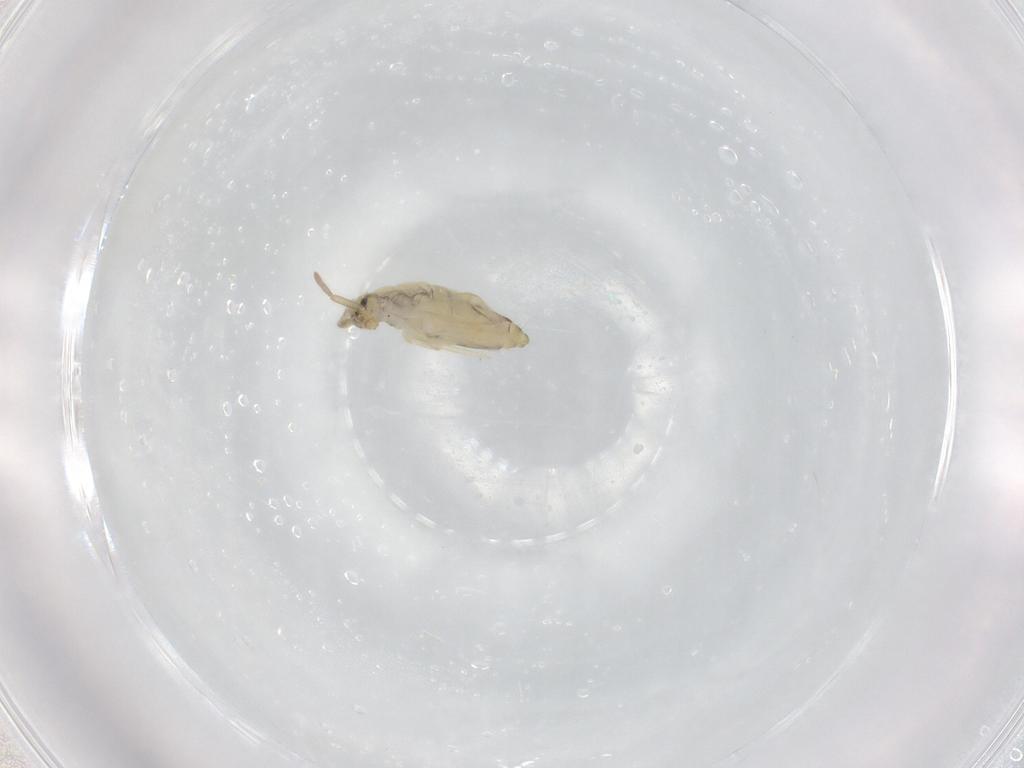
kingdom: Animalia
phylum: Arthropoda
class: Collembola
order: Entomobryomorpha
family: Entomobryidae
